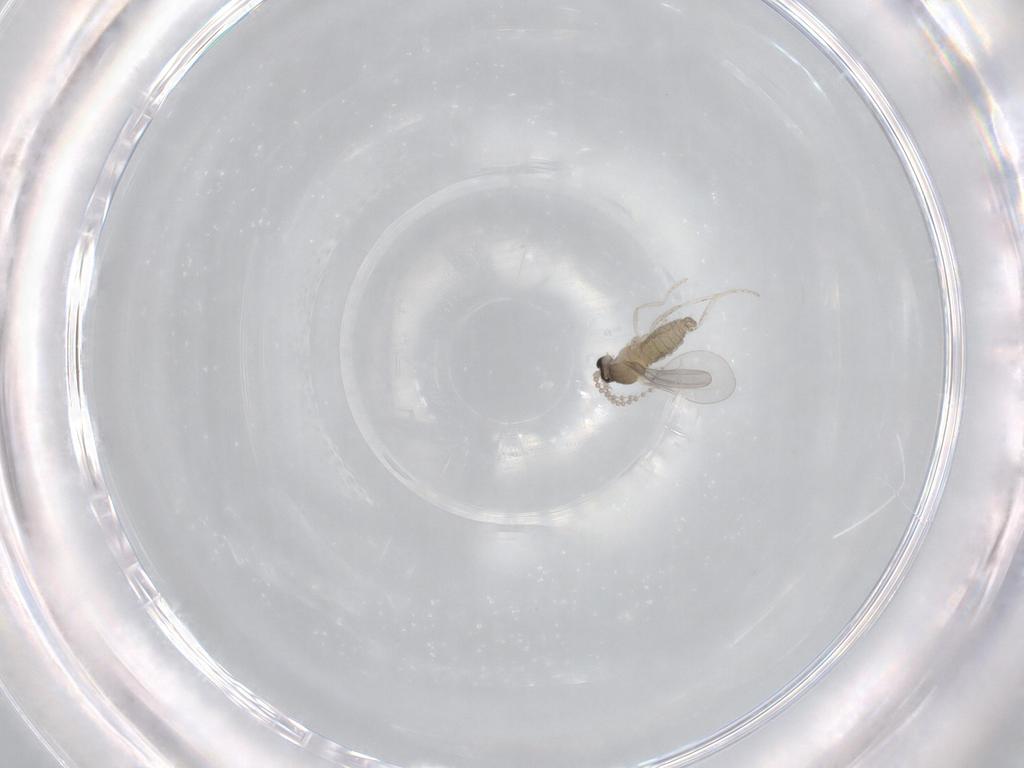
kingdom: Animalia
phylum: Arthropoda
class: Insecta
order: Diptera
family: Cecidomyiidae
